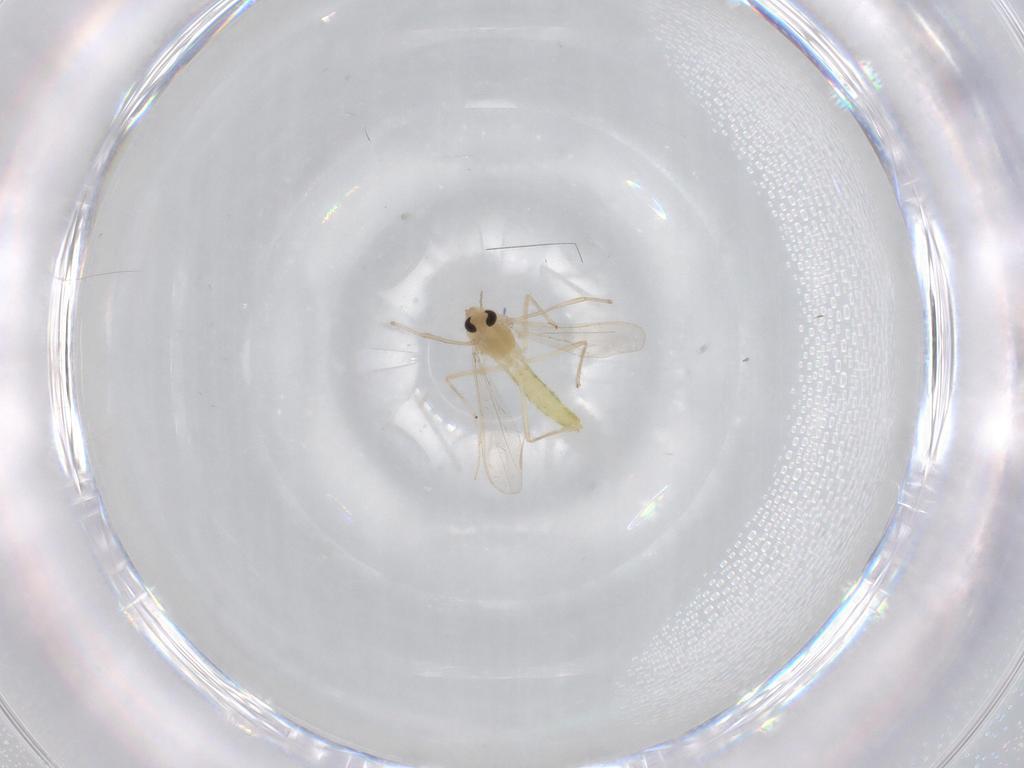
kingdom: Animalia
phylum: Arthropoda
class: Insecta
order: Diptera
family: Chironomidae
